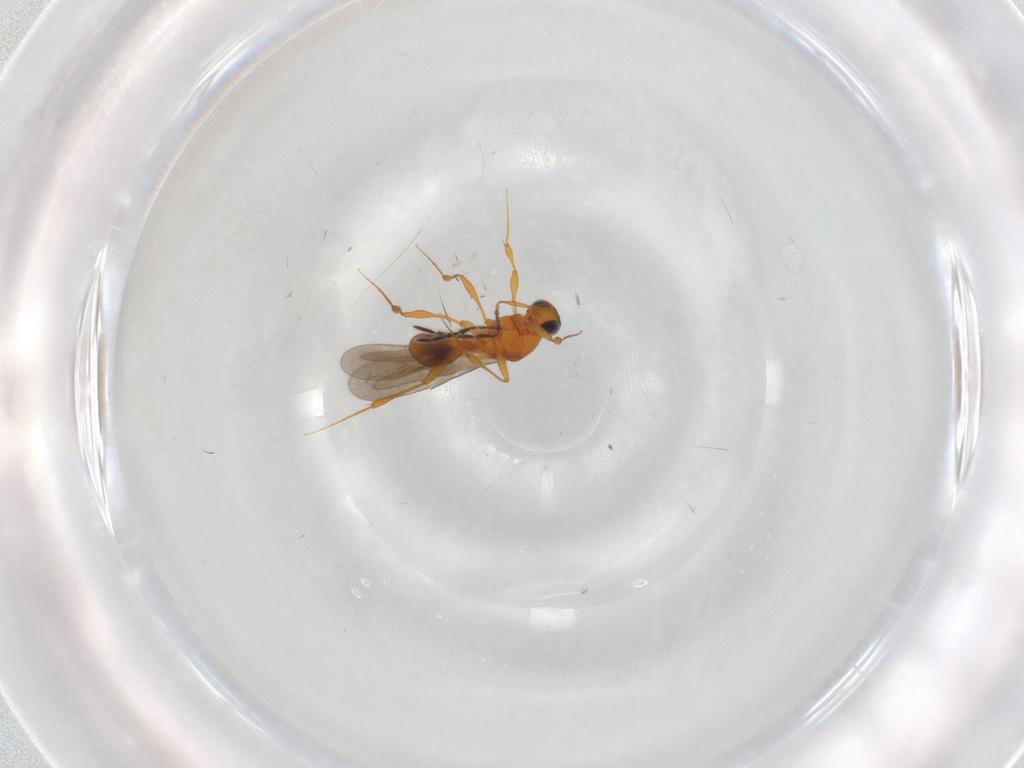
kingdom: Animalia
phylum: Arthropoda
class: Insecta
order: Hymenoptera
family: Platygastridae
